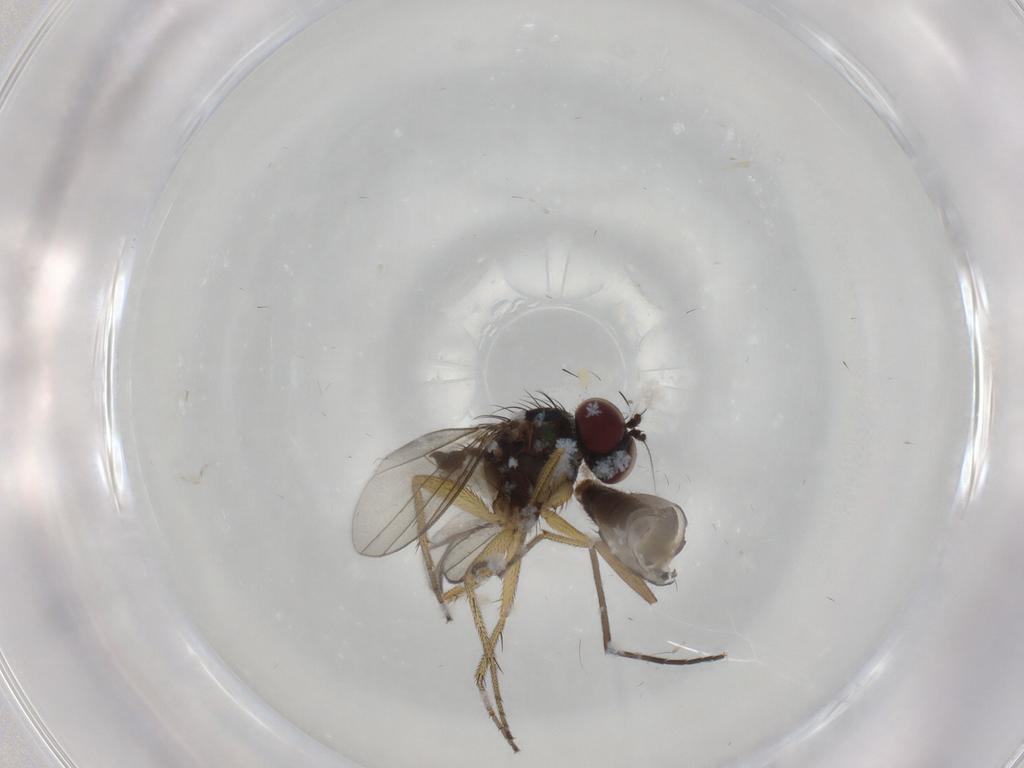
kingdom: Animalia
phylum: Arthropoda
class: Insecta
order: Diptera
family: Dolichopodidae
